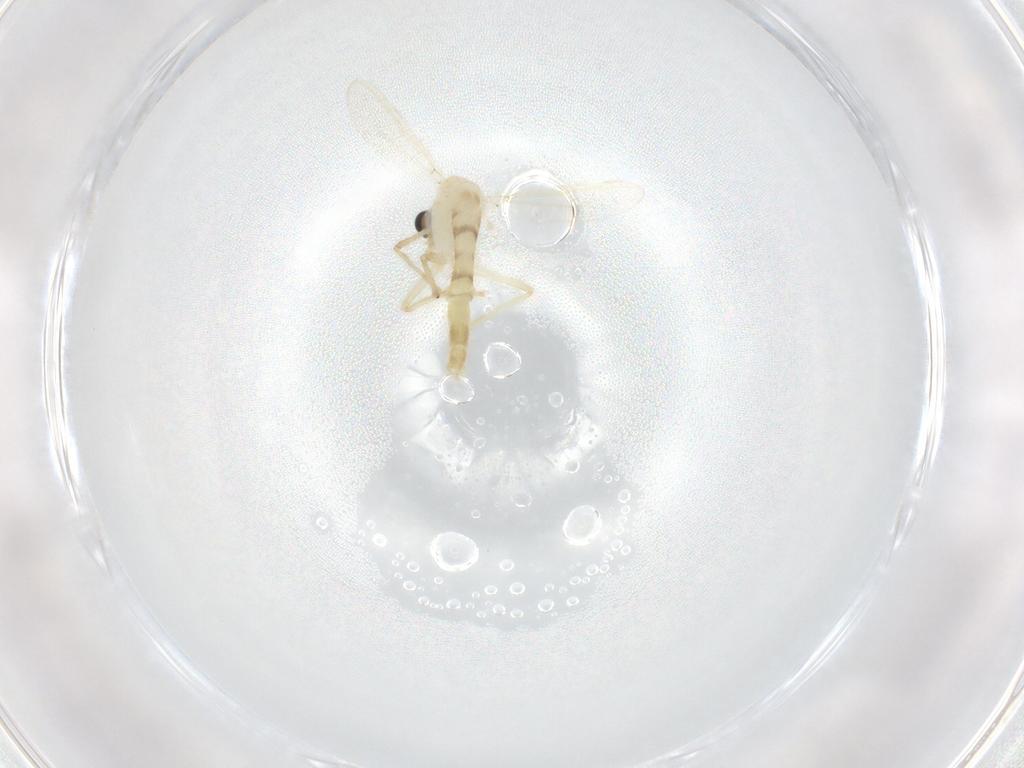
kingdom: Animalia
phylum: Arthropoda
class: Insecta
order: Diptera
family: Chironomidae
